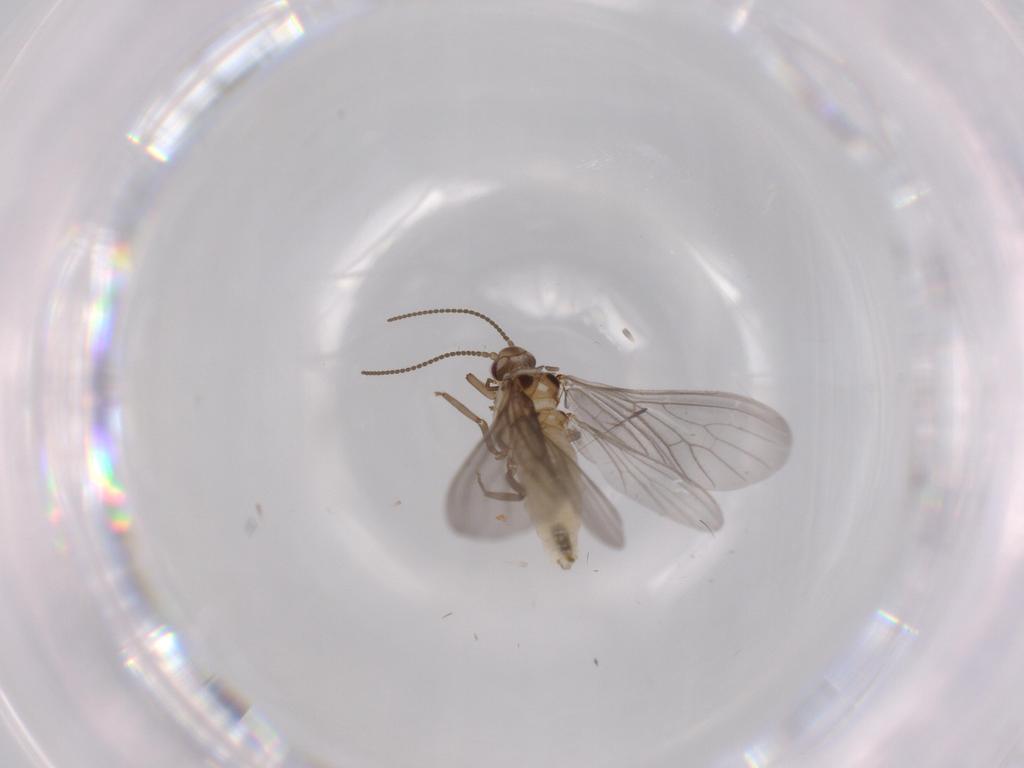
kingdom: Animalia
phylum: Arthropoda
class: Insecta
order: Neuroptera
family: Coniopterygidae
